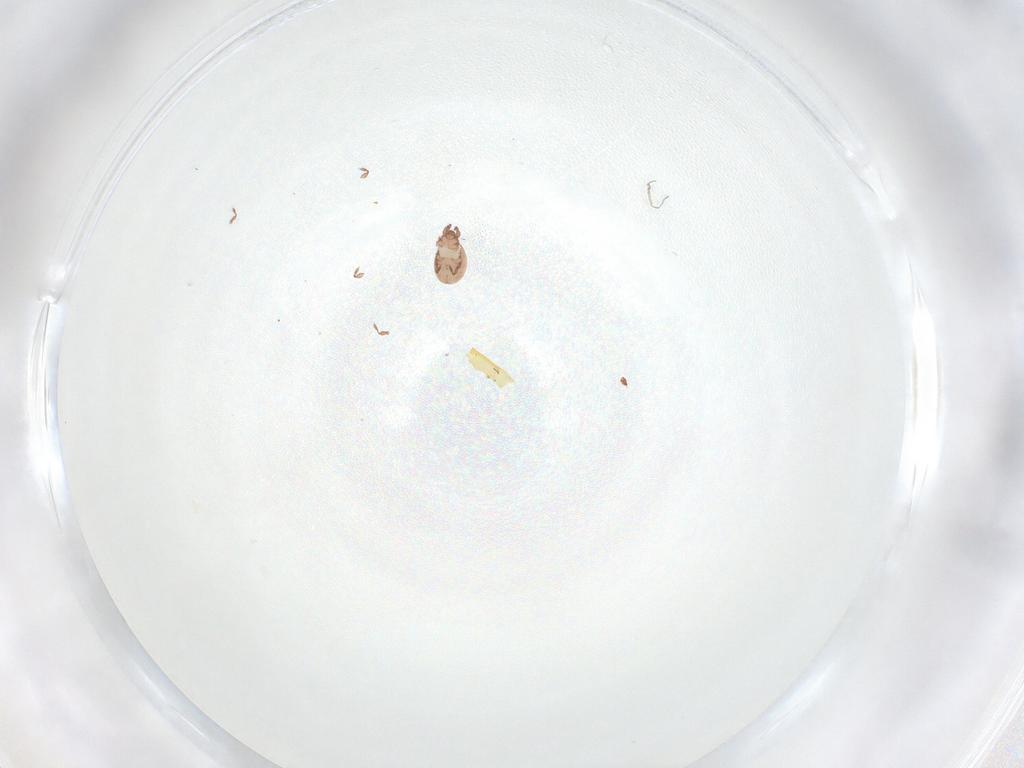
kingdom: Animalia
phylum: Arthropoda
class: Arachnida
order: Sarcoptiformes
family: Eremaeidae
